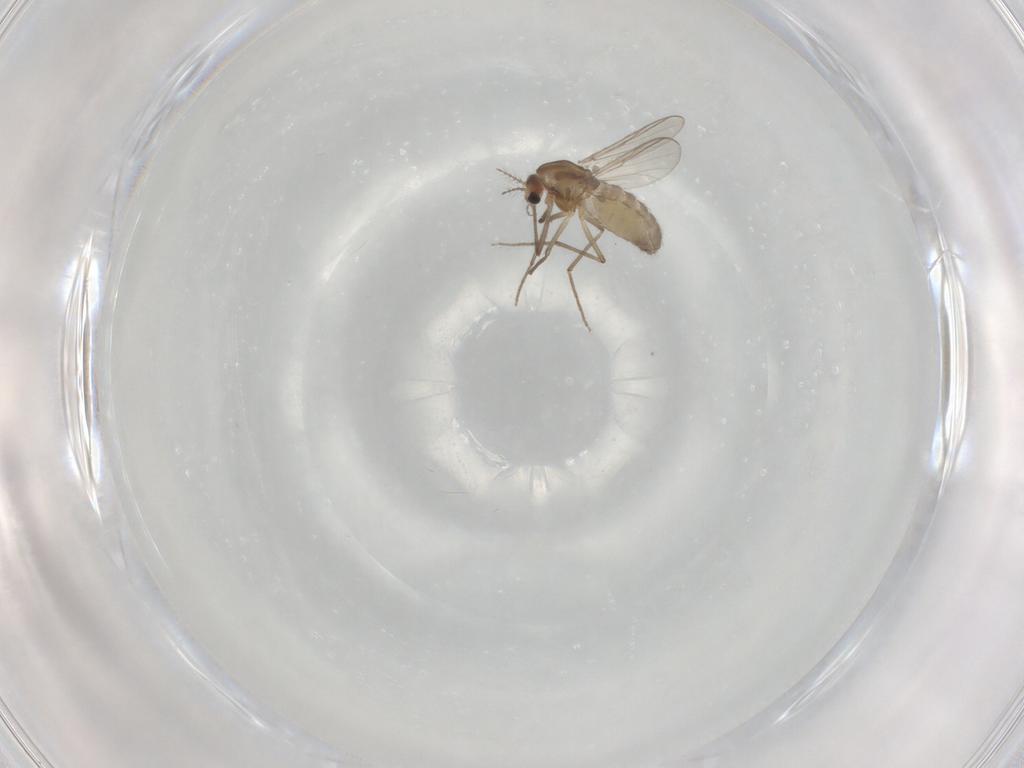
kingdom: Animalia
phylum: Arthropoda
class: Insecta
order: Diptera
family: Chironomidae
